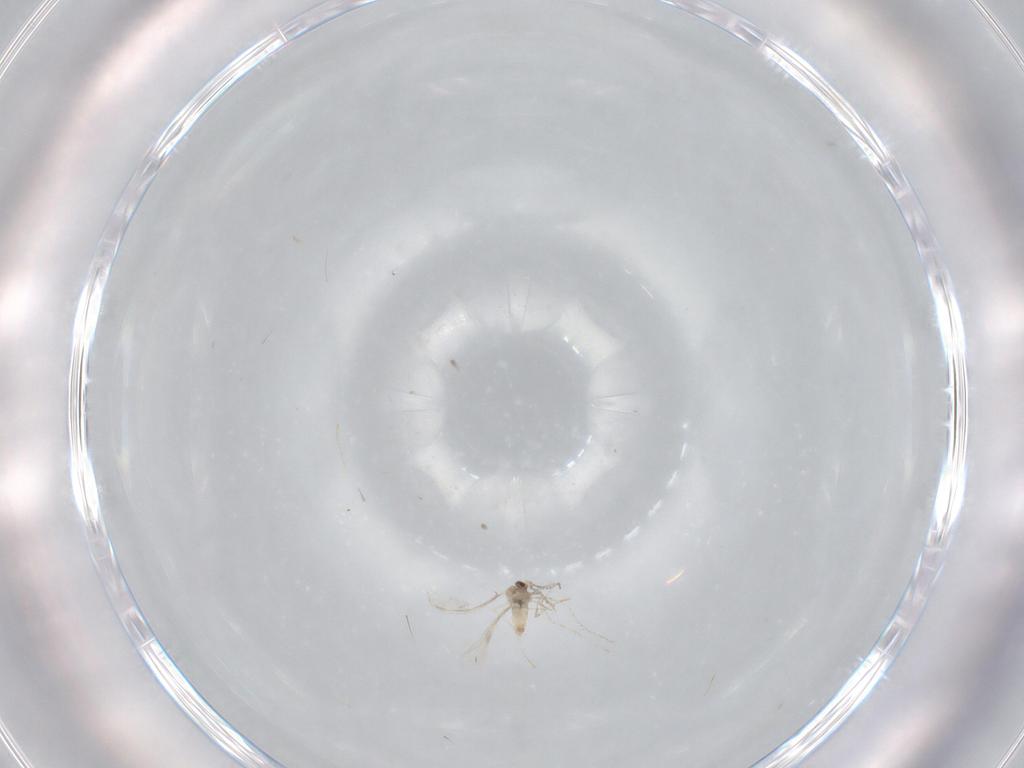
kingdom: Animalia
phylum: Arthropoda
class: Insecta
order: Diptera
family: Cecidomyiidae
